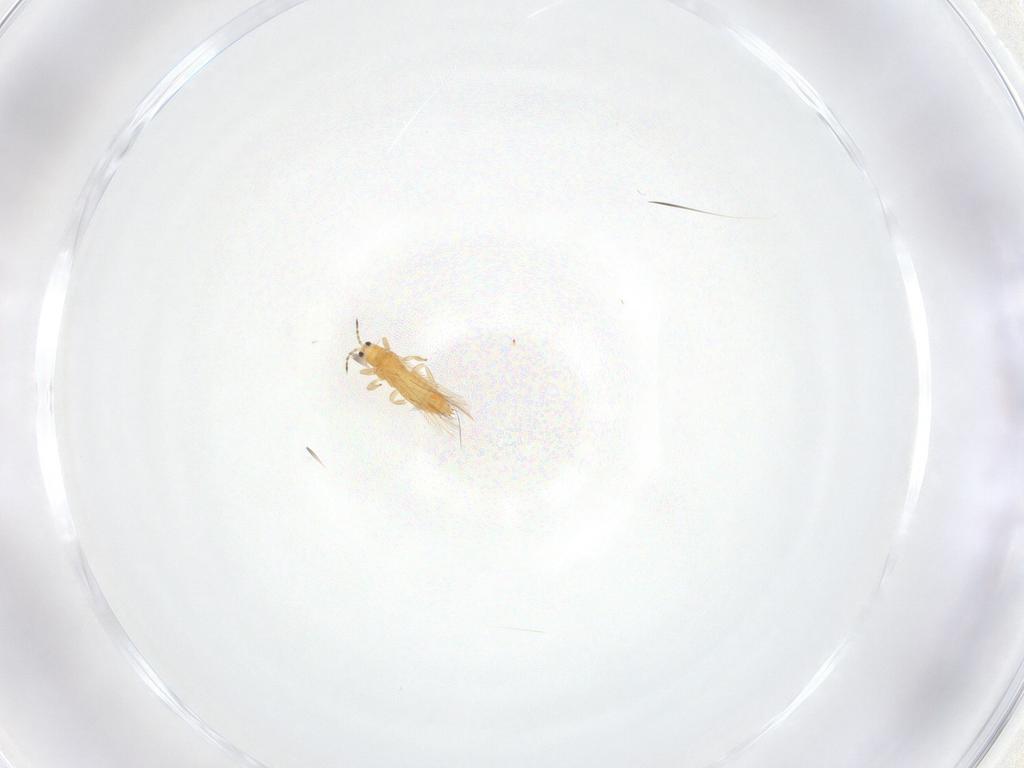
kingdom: Animalia
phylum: Arthropoda
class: Insecta
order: Thysanoptera
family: Thripidae
